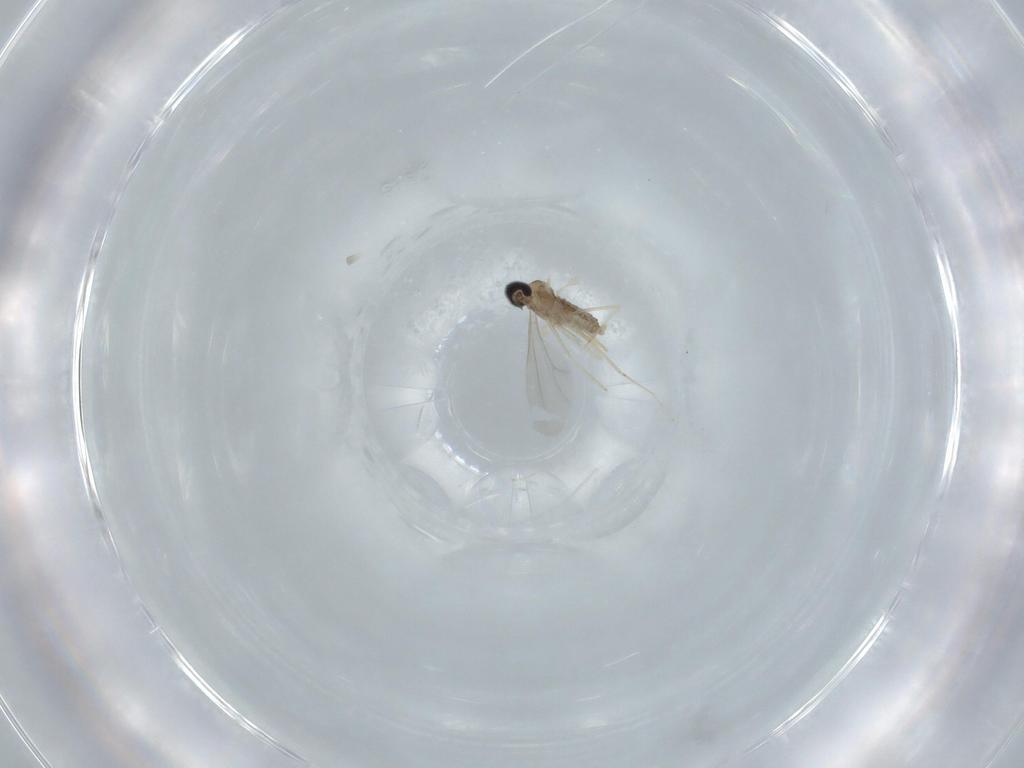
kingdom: Animalia
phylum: Arthropoda
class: Insecta
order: Diptera
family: Cecidomyiidae
